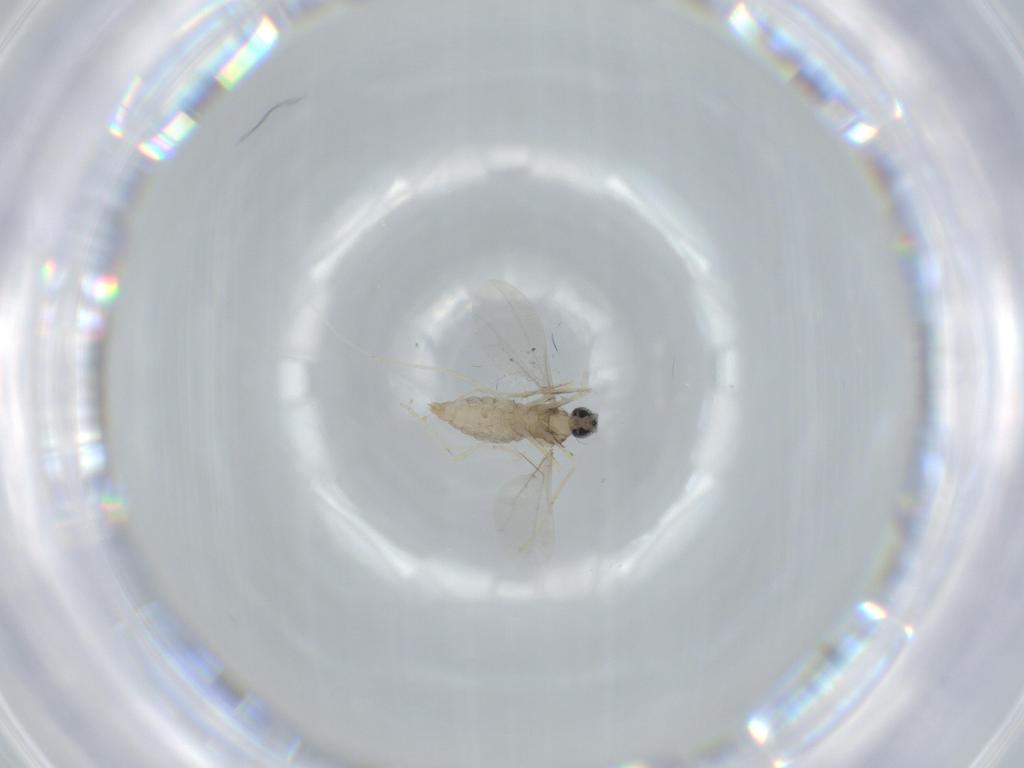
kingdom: Animalia
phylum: Arthropoda
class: Insecta
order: Diptera
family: Cecidomyiidae
